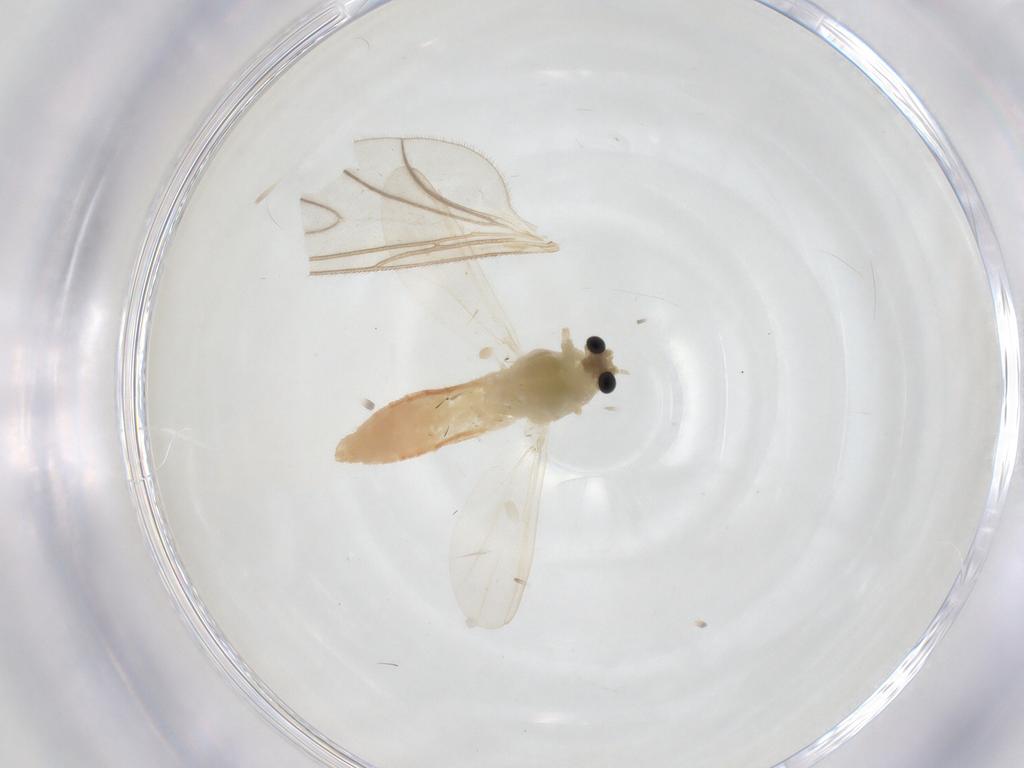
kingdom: Animalia
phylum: Arthropoda
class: Insecta
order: Diptera
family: Chironomidae
